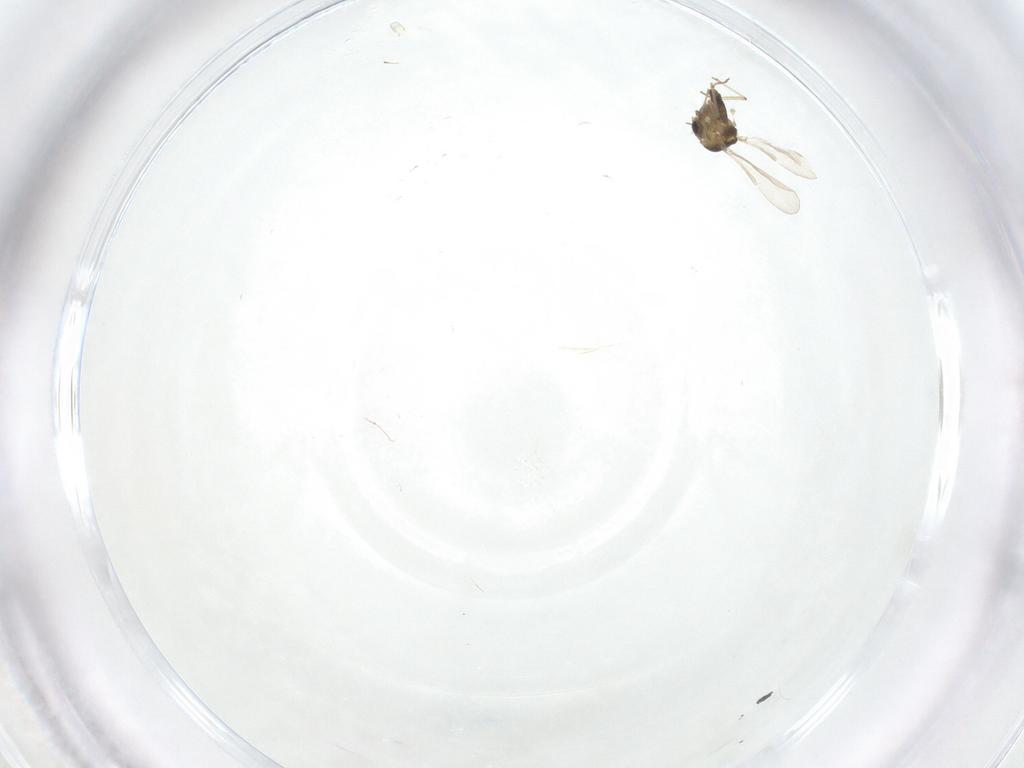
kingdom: Animalia
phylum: Arthropoda
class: Insecta
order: Diptera
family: Chironomidae
